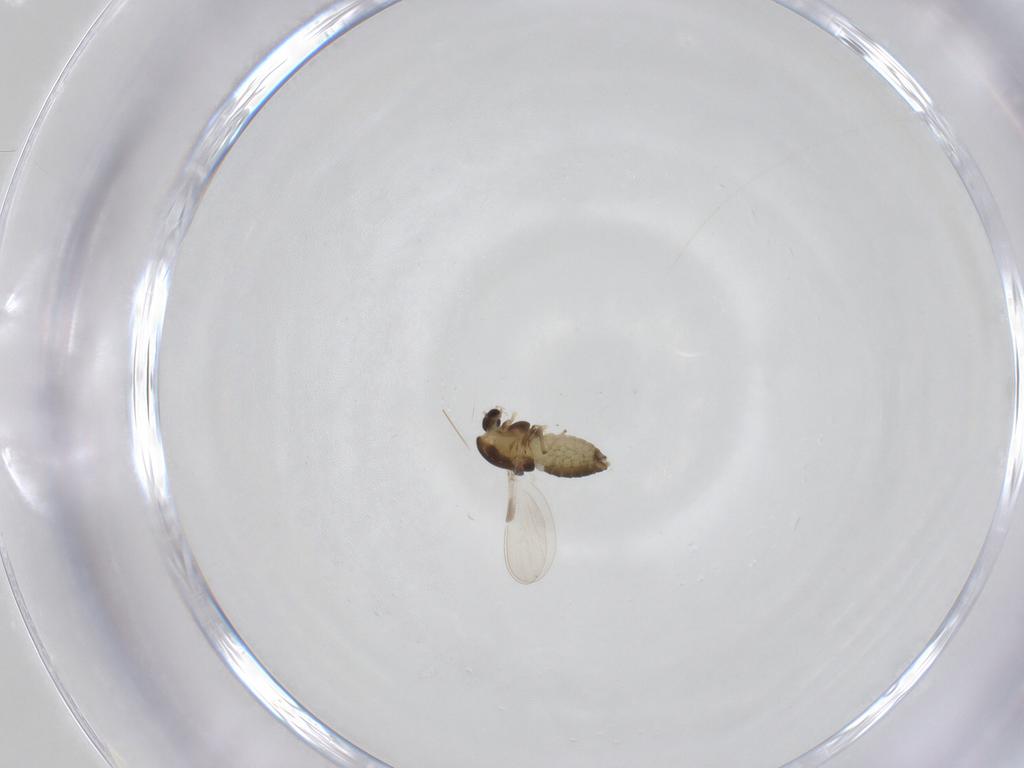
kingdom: Animalia
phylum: Arthropoda
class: Insecta
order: Diptera
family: Chironomidae
